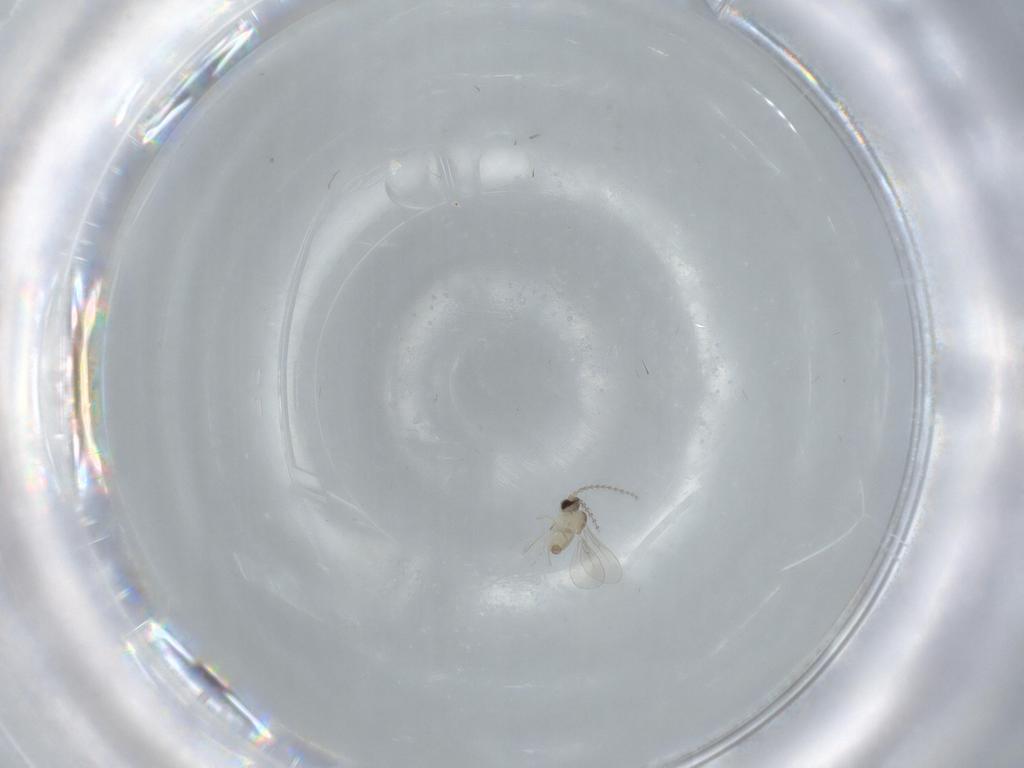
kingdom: Animalia
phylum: Arthropoda
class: Insecta
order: Diptera
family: Cecidomyiidae
